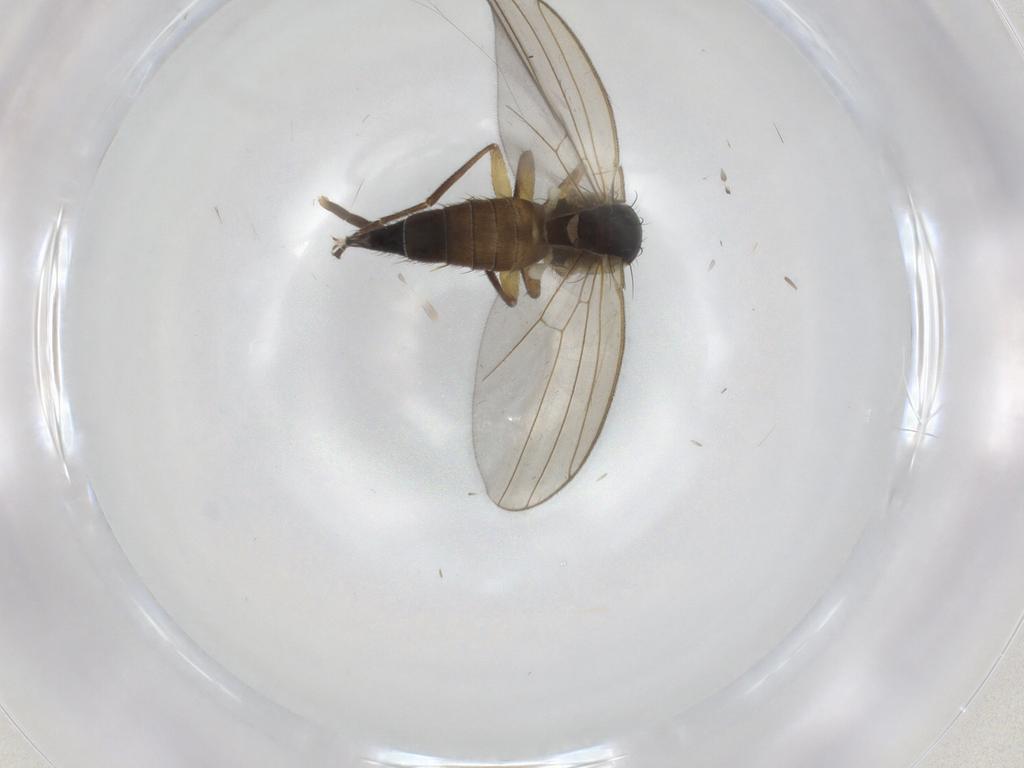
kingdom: Animalia
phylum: Arthropoda
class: Insecta
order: Diptera
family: Agromyzidae
